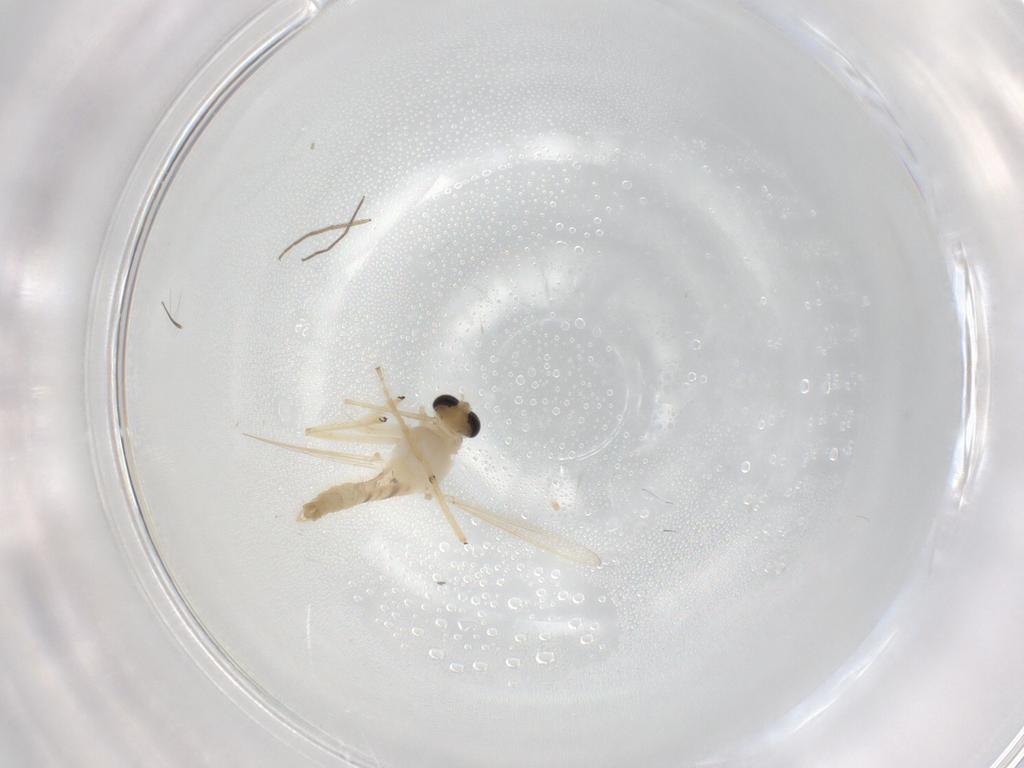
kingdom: Animalia
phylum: Arthropoda
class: Insecta
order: Diptera
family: Chironomidae
